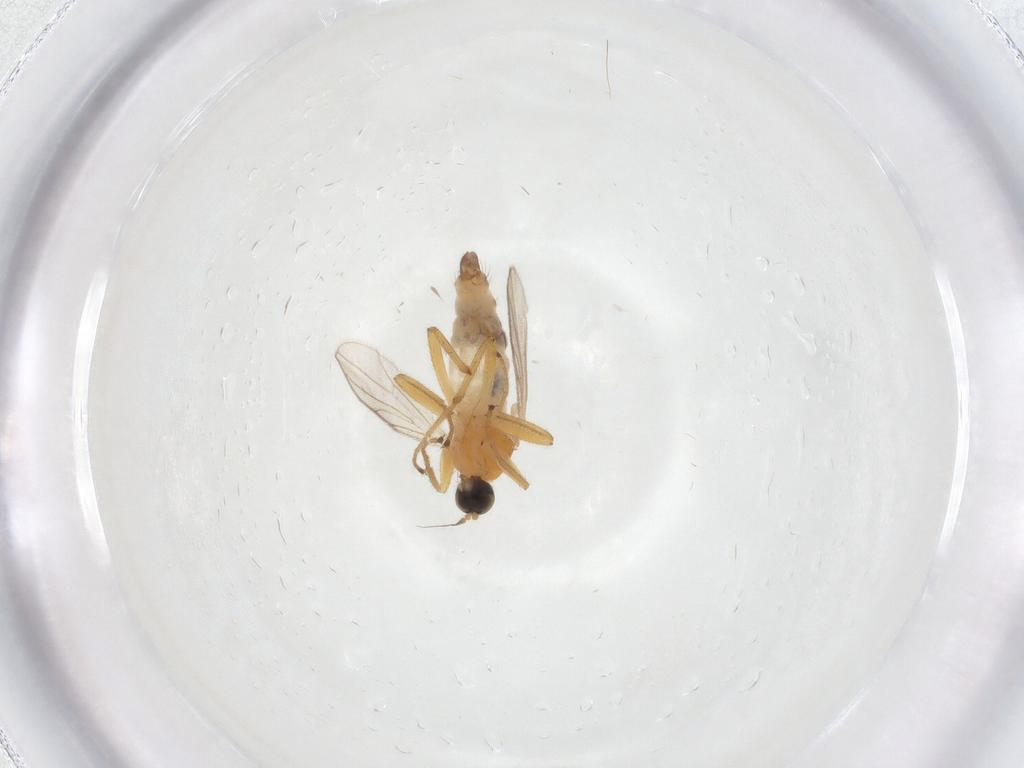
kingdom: Animalia
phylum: Arthropoda
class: Insecta
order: Diptera
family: Hybotidae
